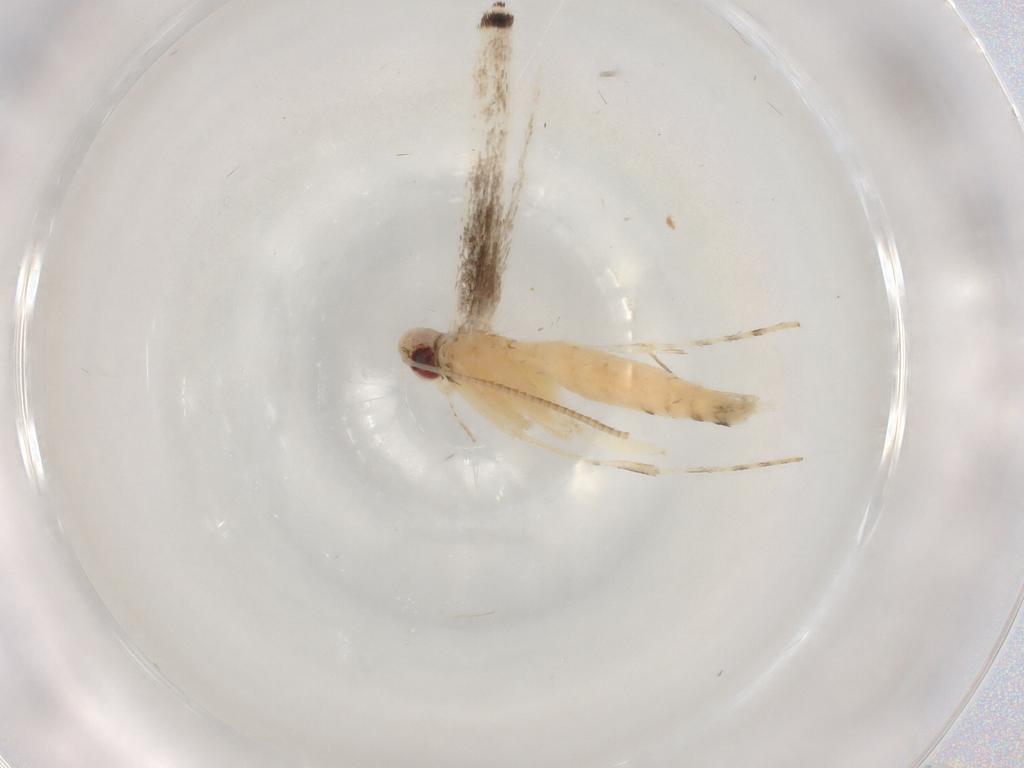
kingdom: Animalia
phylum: Arthropoda
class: Insecta
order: Lepidoptera
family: Gracillariidae
